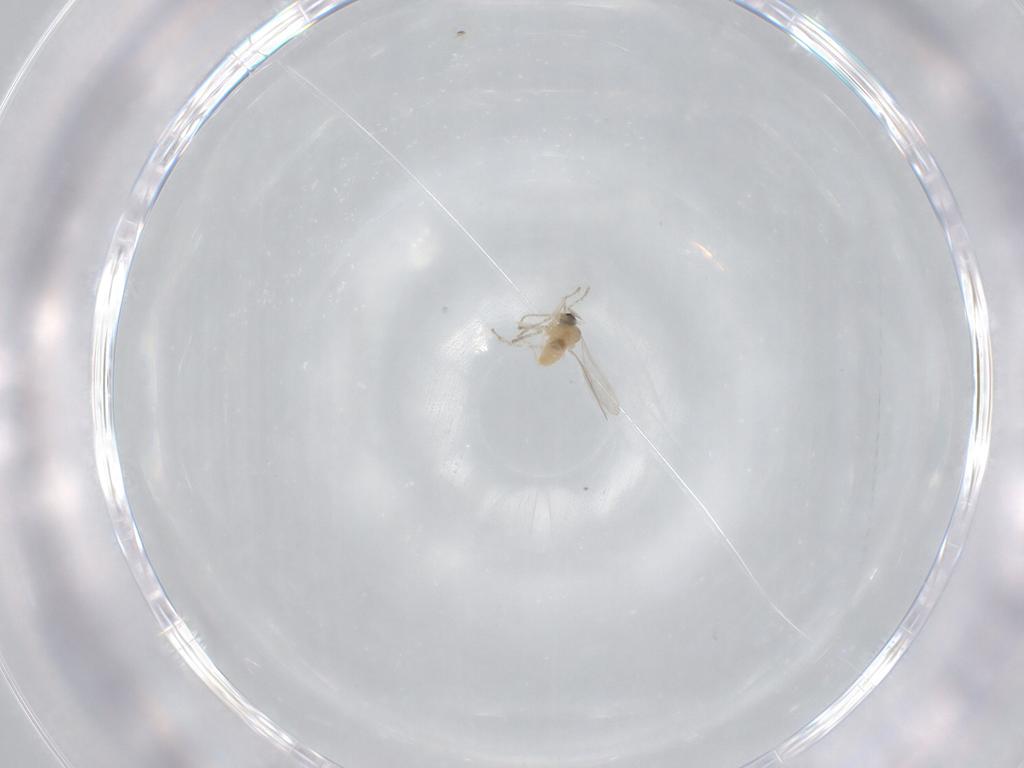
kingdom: Animalia
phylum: Arthropoda
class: Insecta
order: Diptera
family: Cecidomyiidae
